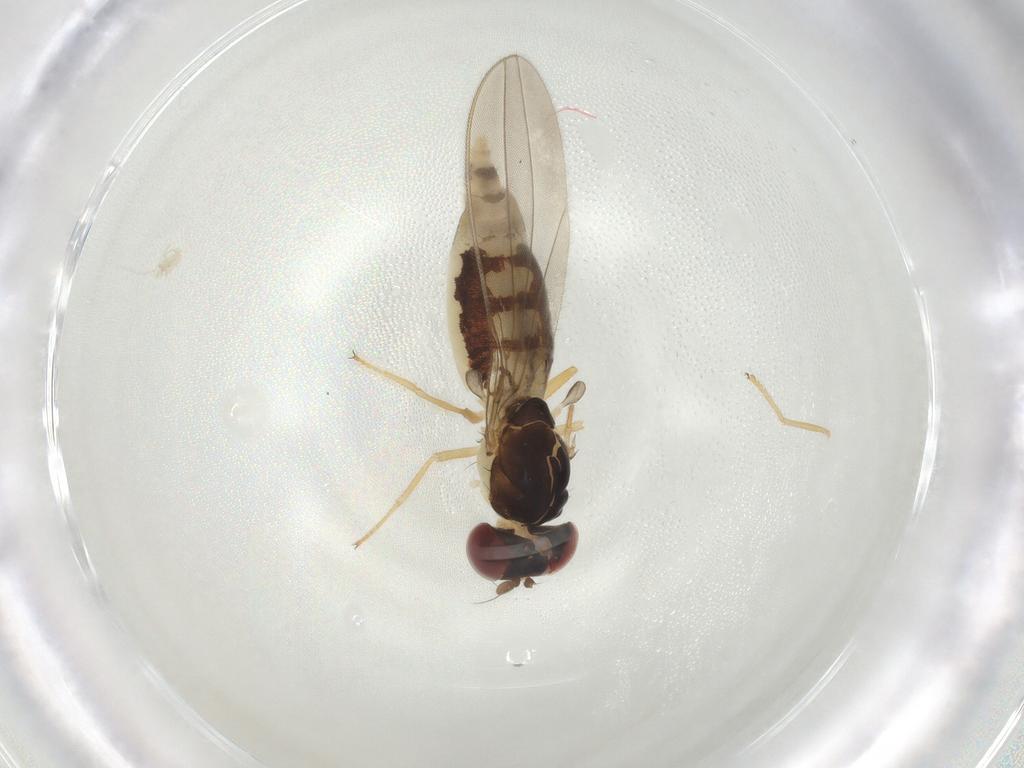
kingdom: Animalia
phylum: Arthropoda
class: Insecta
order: Diptera
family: Asteiidae
